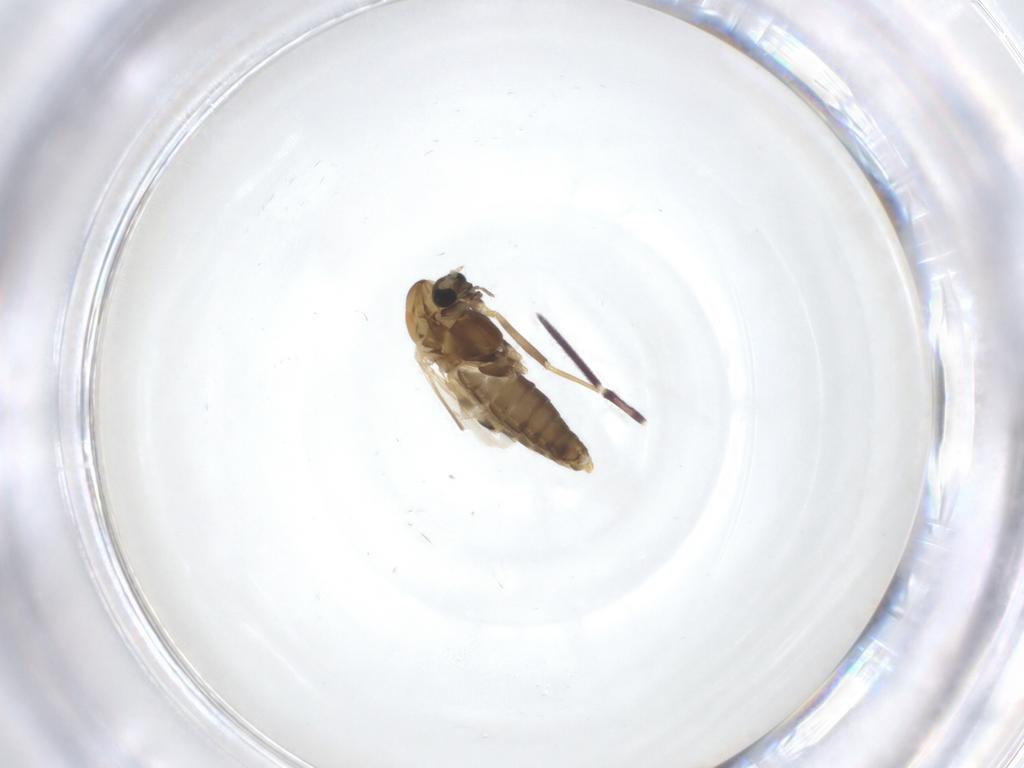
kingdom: Animalia
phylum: Arthropoda
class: Insecta
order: Diptera
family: Chironomidae
